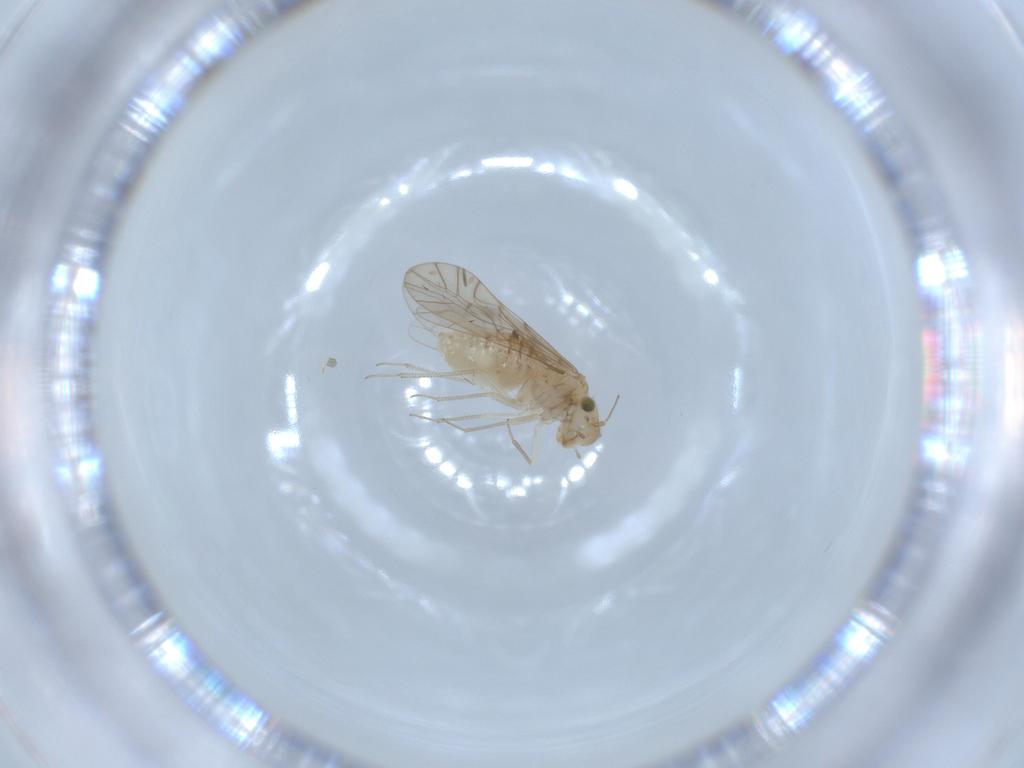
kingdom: Animalia
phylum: Arthropoda
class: Insecta
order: Psocodea
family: Lachesillidae
